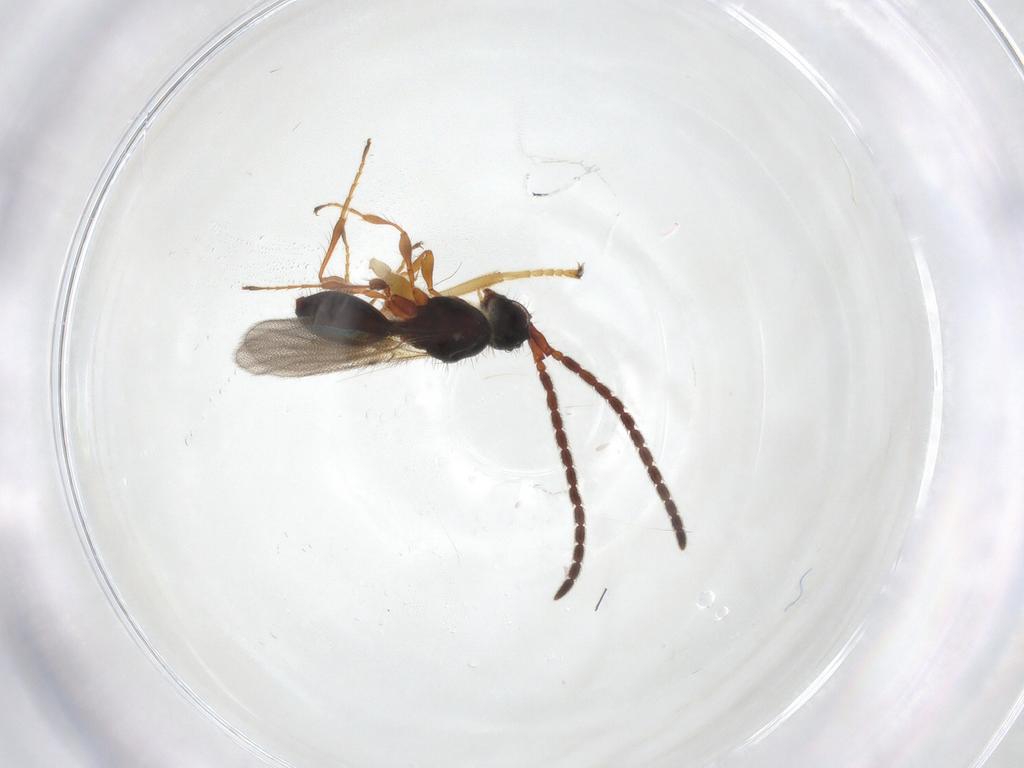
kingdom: Animalia
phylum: Arthropoda
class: Insecta
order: Hymenoptera
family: Braconidae
